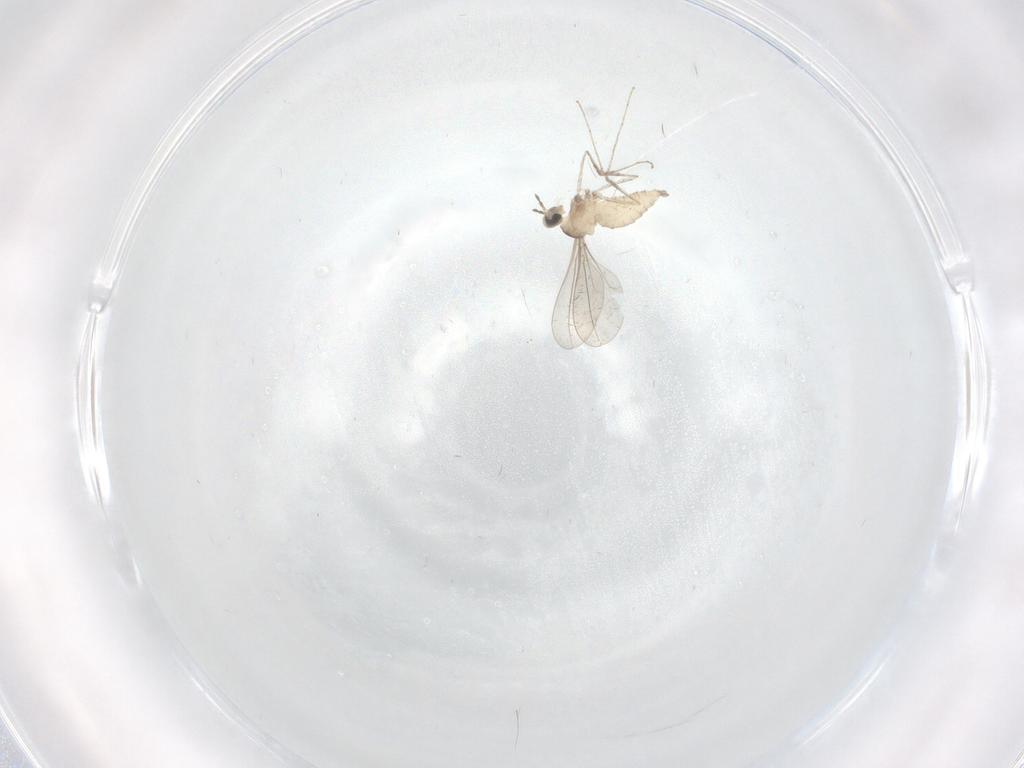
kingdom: Animalia
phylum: Arthropoda
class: Insecta
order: Diptera
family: Cecidomyiidae
